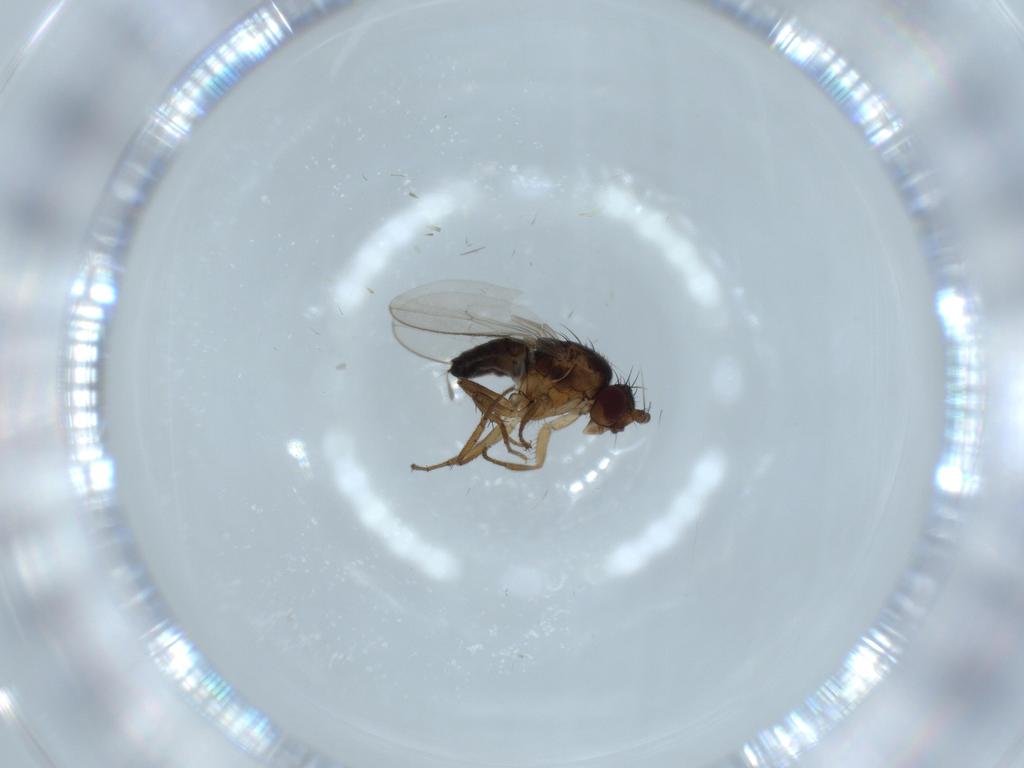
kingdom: Animalia
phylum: Arthropoda
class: Insecta
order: Diptera
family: Sphaeroceridae
